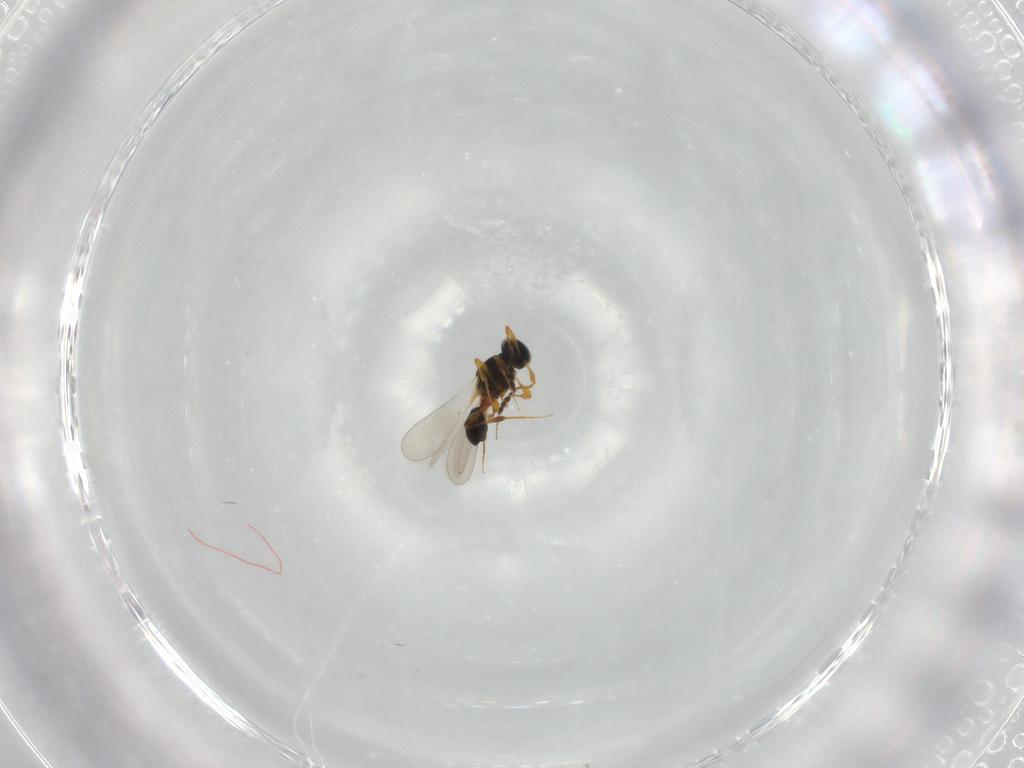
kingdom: Animalia
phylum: Arthropoda
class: Insecta
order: Hymenoptera
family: Platygastridae
